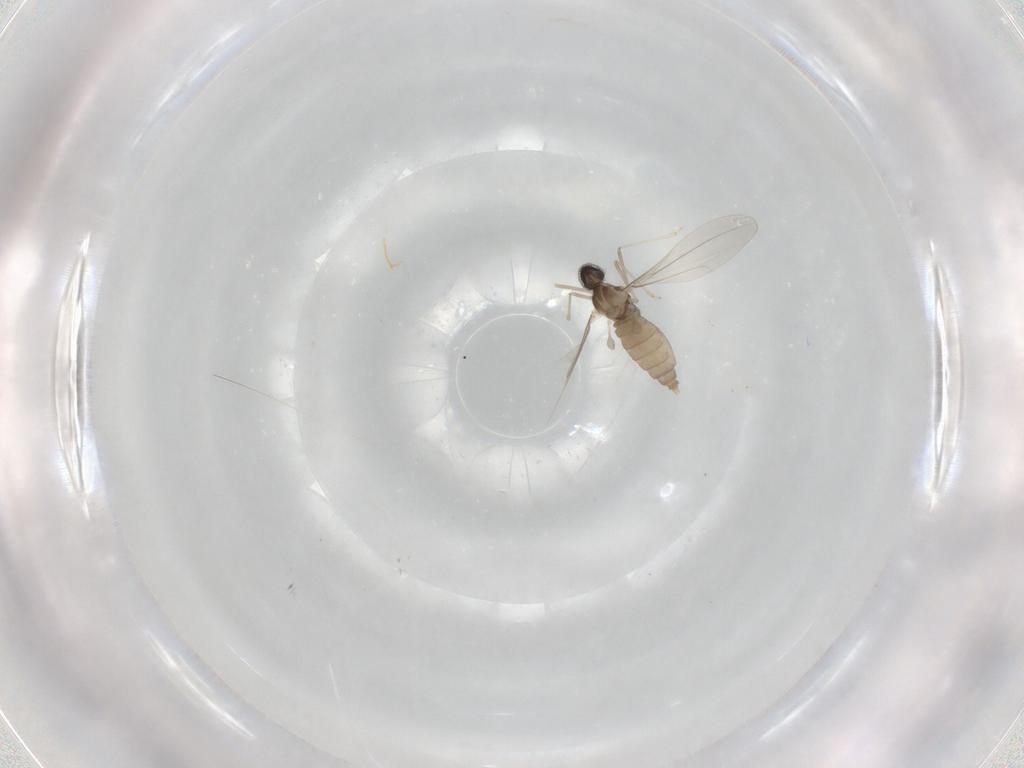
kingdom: Animalia
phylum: Arthropoda
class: Insecta
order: Diptera
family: Cecidomyiidae
